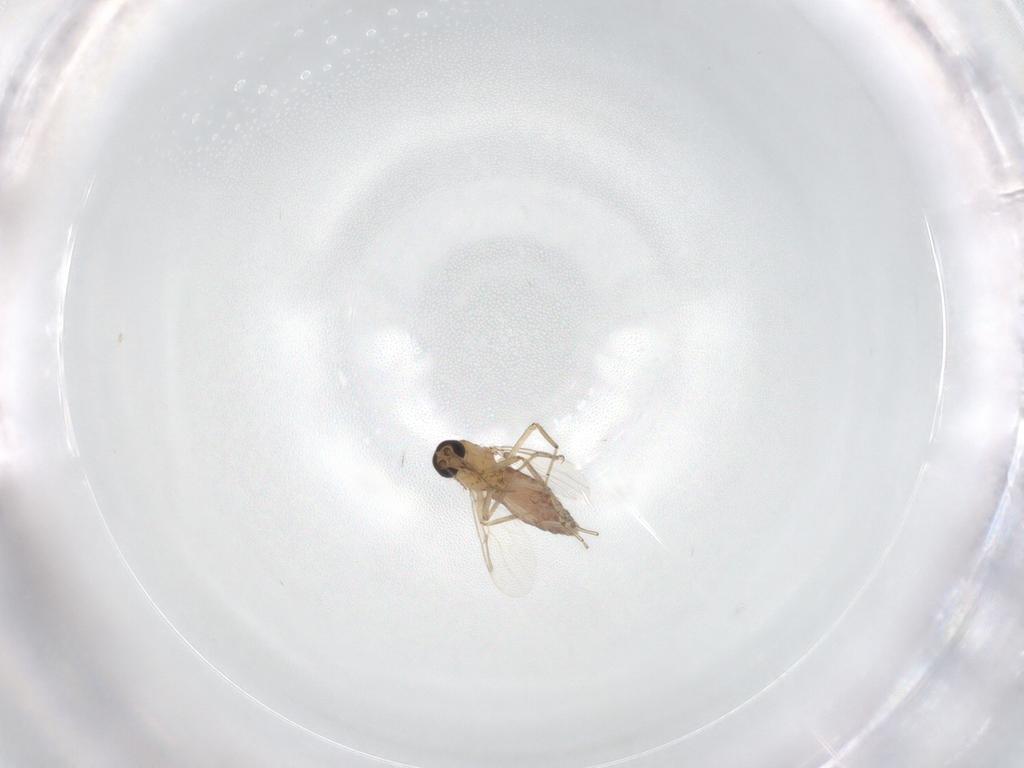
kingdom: Animalia
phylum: Arthropoda
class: Insecta
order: Diptera
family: Ceratopogonidae
